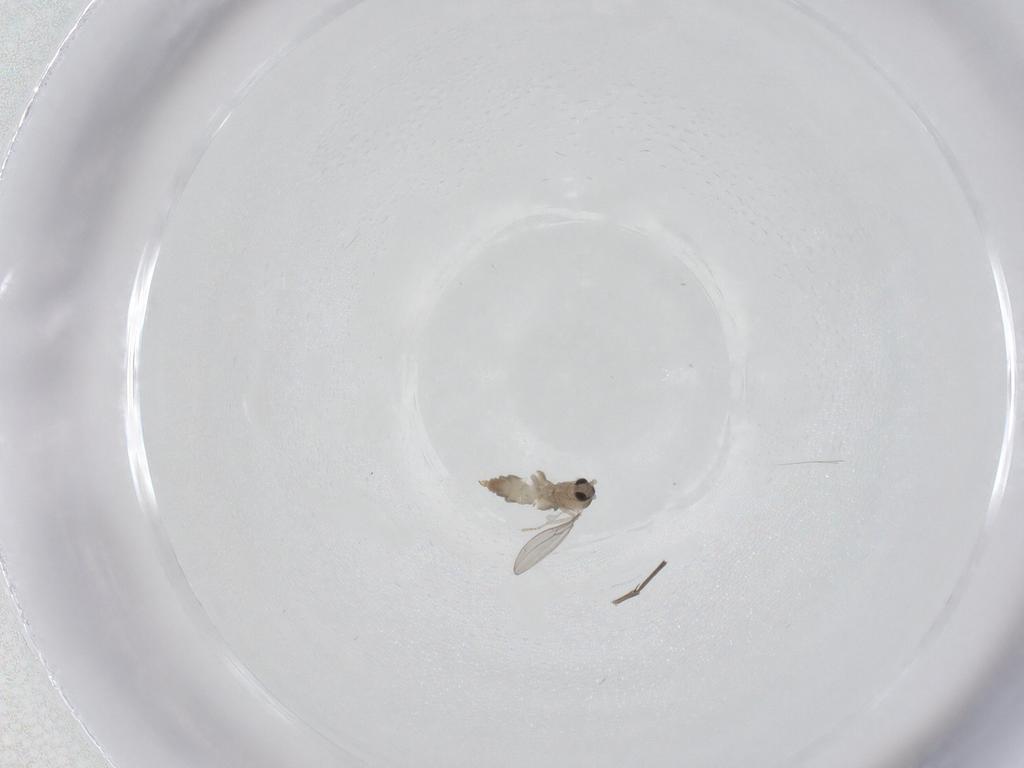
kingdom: Animalia
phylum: Arthropoda
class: Insecta
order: Diptera
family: Cecidomyiidae
